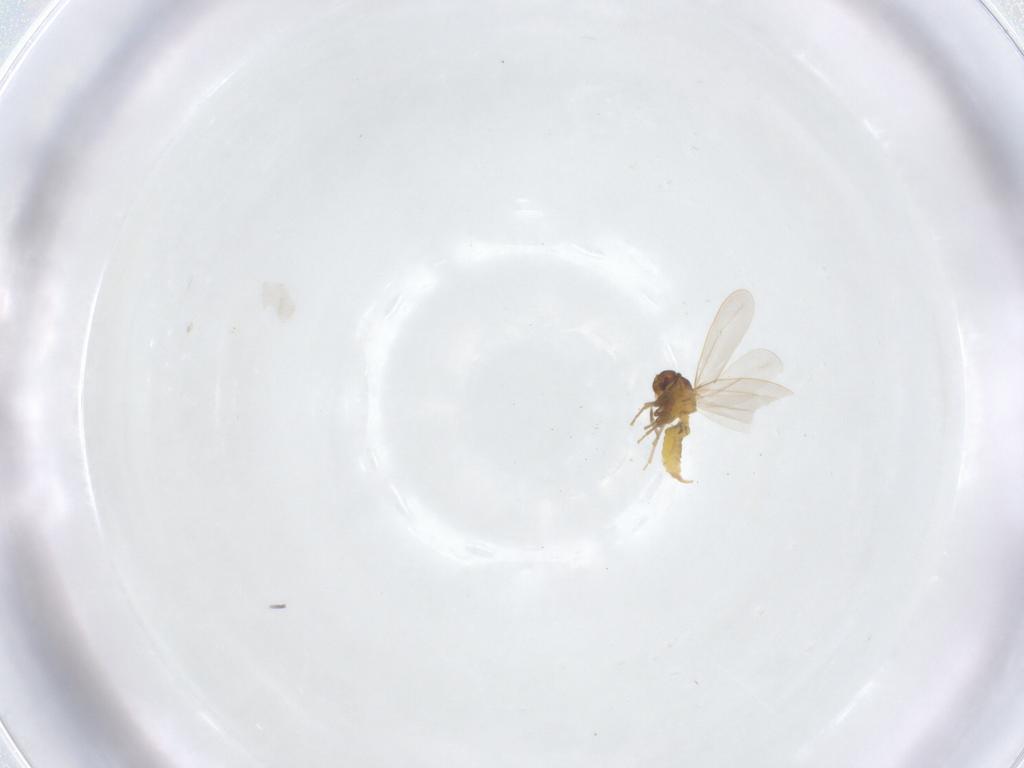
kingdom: Animalia
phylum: Arthropoda
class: Insecta
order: Hemiptera
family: Aleyrodidae
